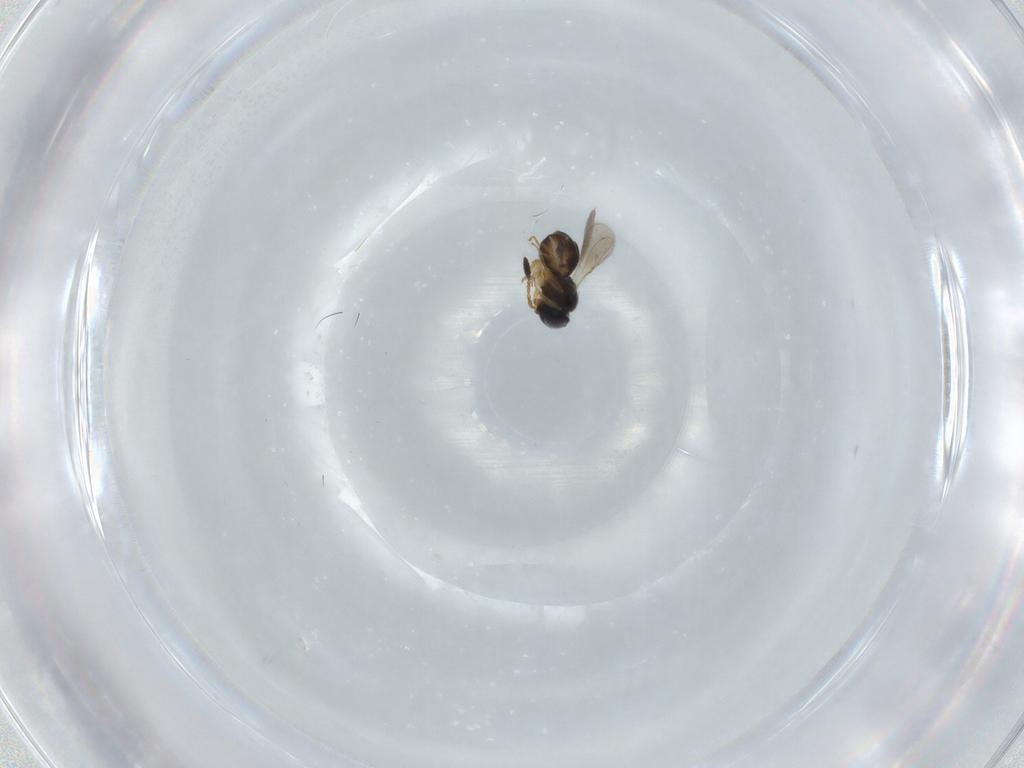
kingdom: Animalia
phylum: Arthropoda
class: Insecta
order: Hymenoptera
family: Scelionidae
